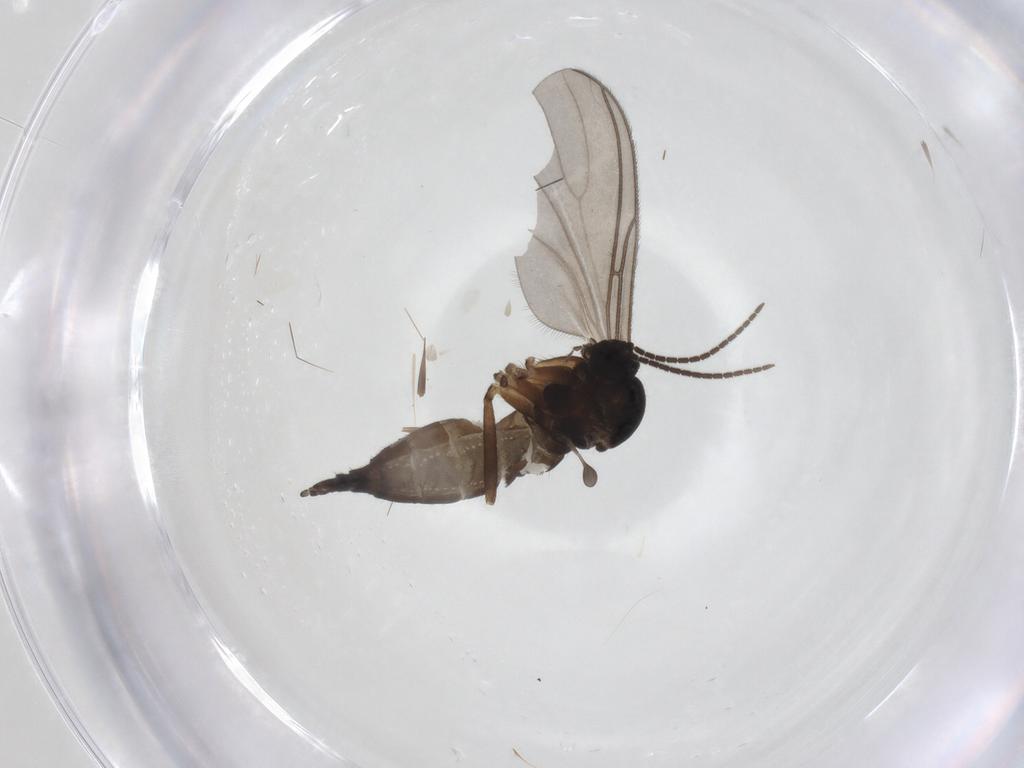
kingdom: Animalia
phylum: Arthropoda
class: Insecta
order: Diptera
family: Sciaridae
